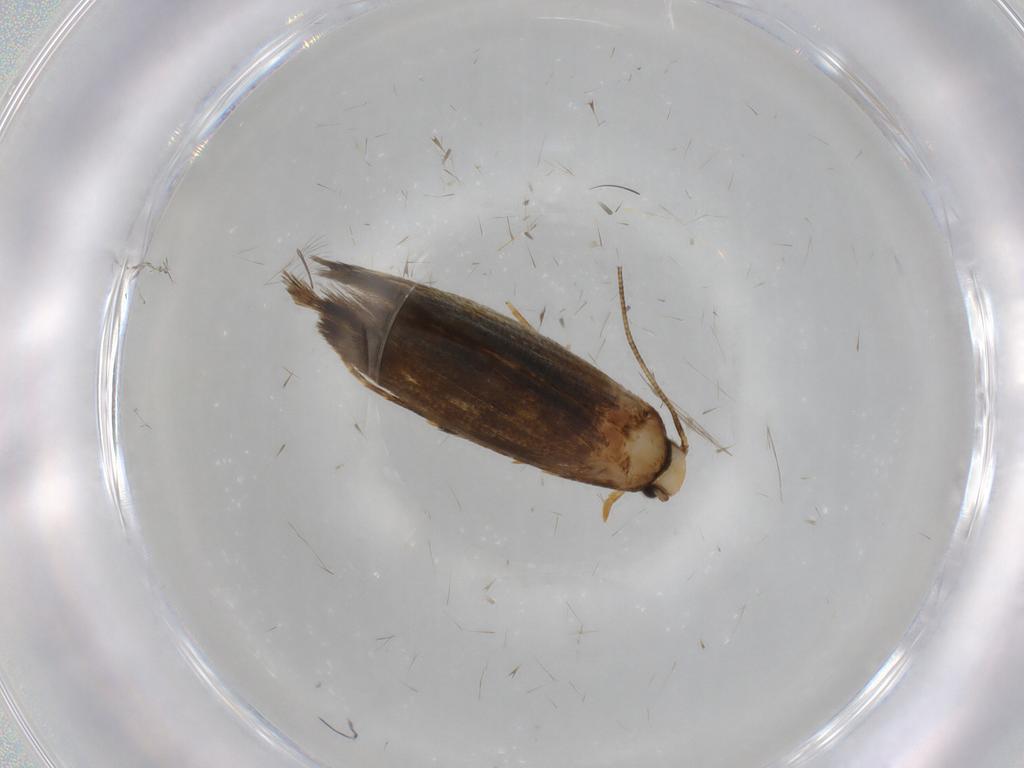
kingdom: Animalia
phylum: Arthropoda
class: Insecta
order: Lepidoptera
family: Tineidae
